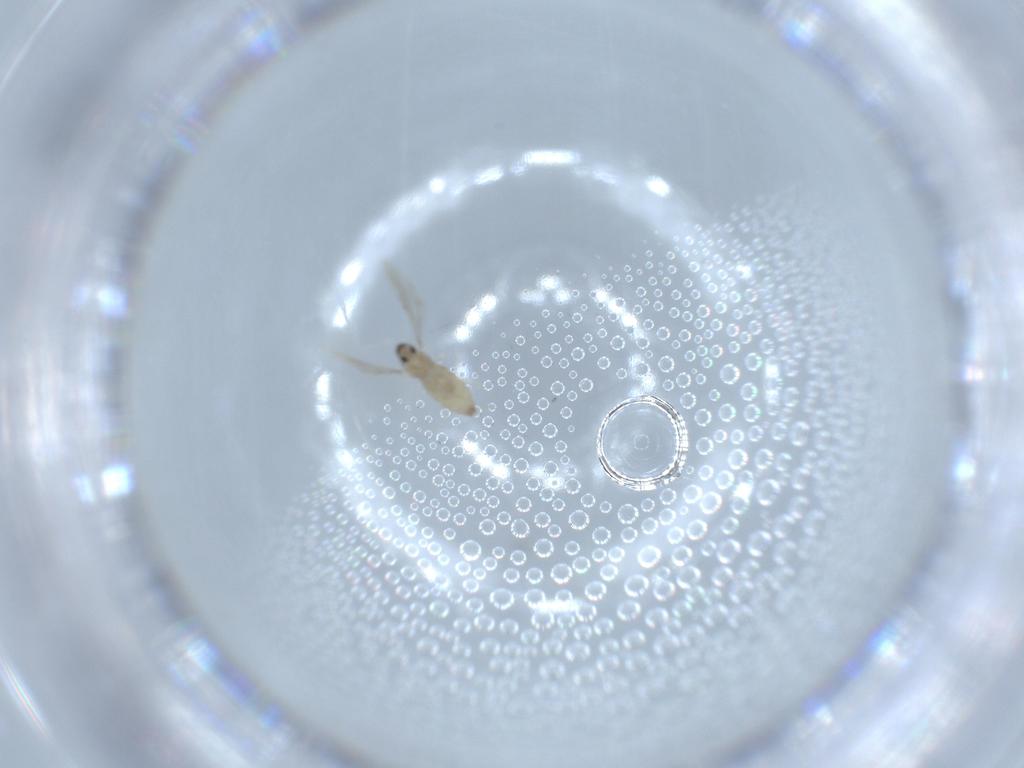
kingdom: Animalia
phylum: Arthropoda
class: Insecta
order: Diptera
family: Cecidomyiidae
